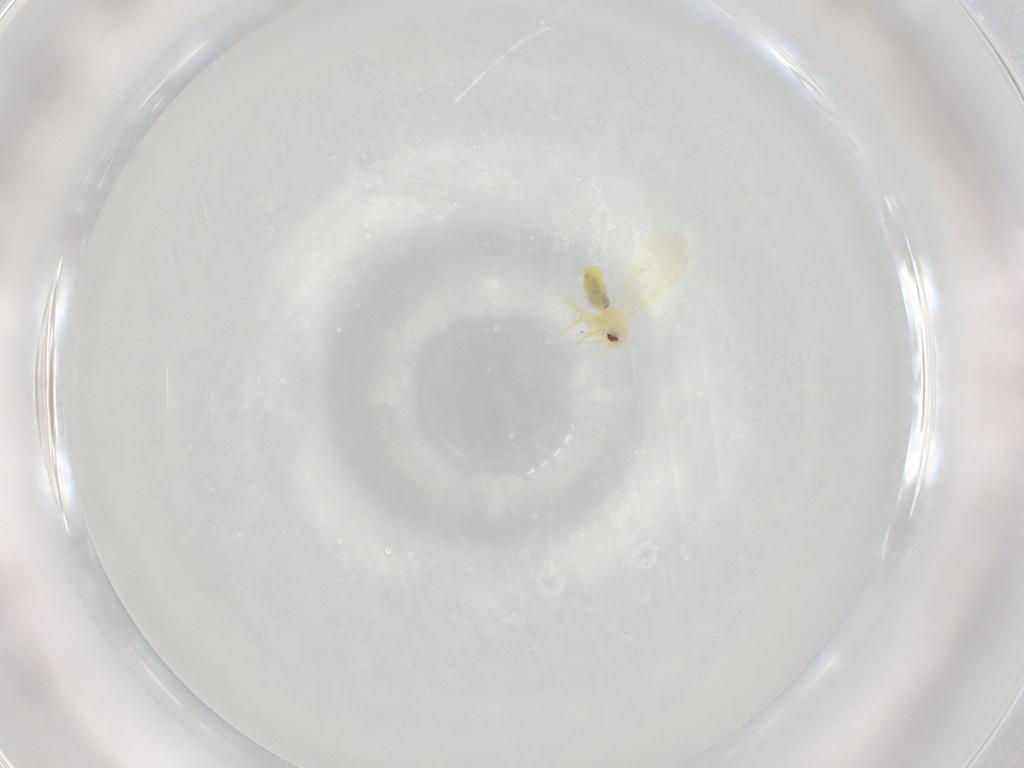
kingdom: Animalia
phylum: Arthropoda
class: Insecta
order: Hemiptera
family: Aleyrodidae
